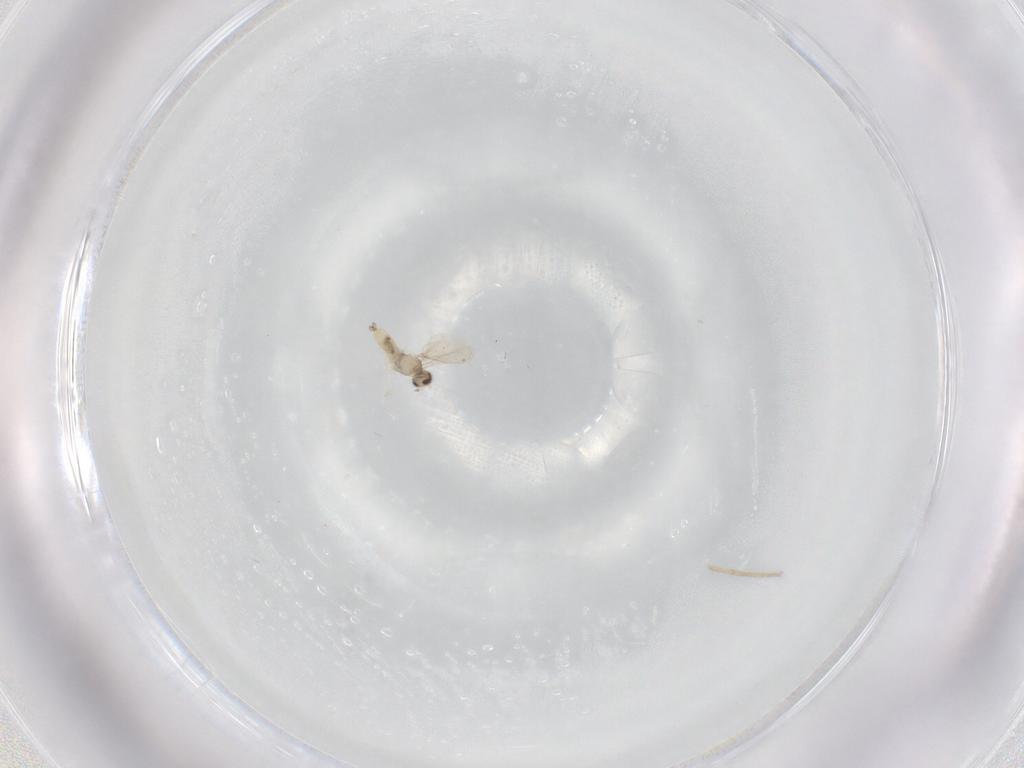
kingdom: Animalia
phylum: Arthropoda
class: Insecta
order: Diptera
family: Cecidomyiidae
